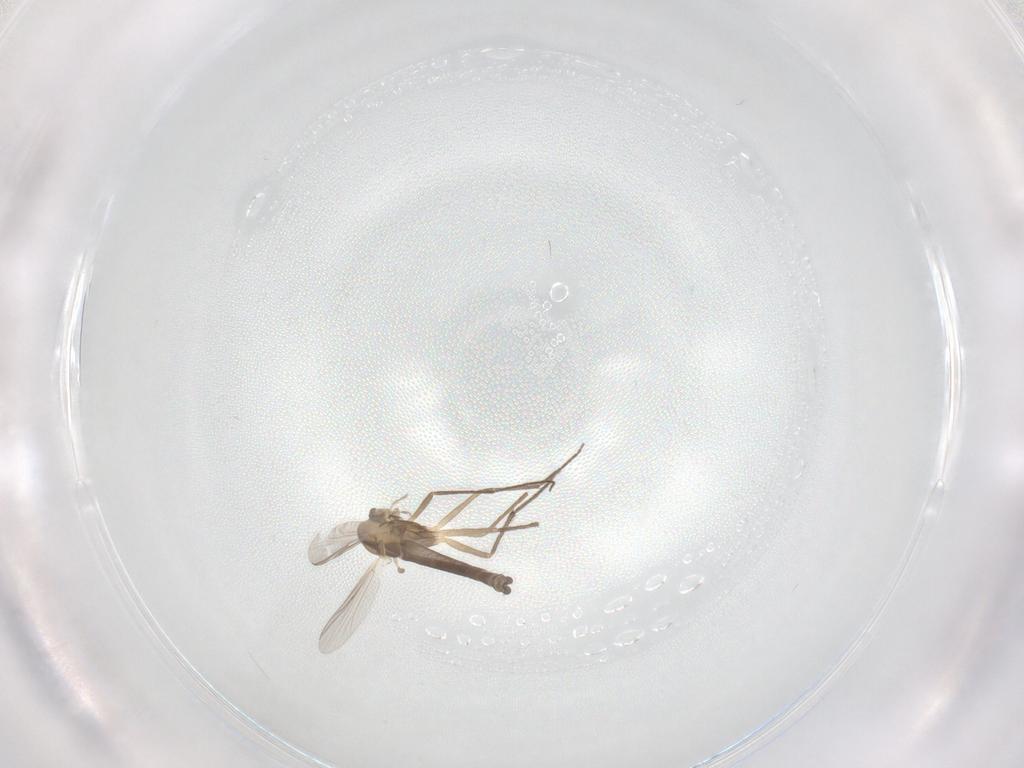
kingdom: Animalia
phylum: Arthropoda
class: Insecta
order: Diptera
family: Chironomidae
